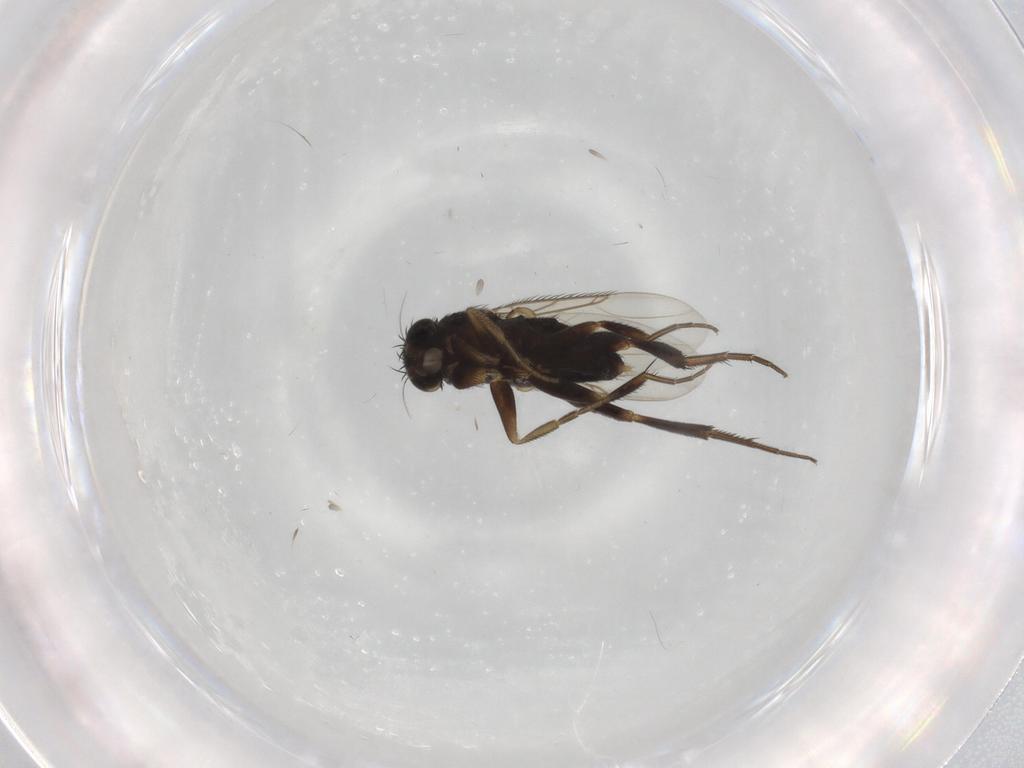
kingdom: Animalia
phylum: Arthropoda
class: Insecta
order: Diptera
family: Phoridae
